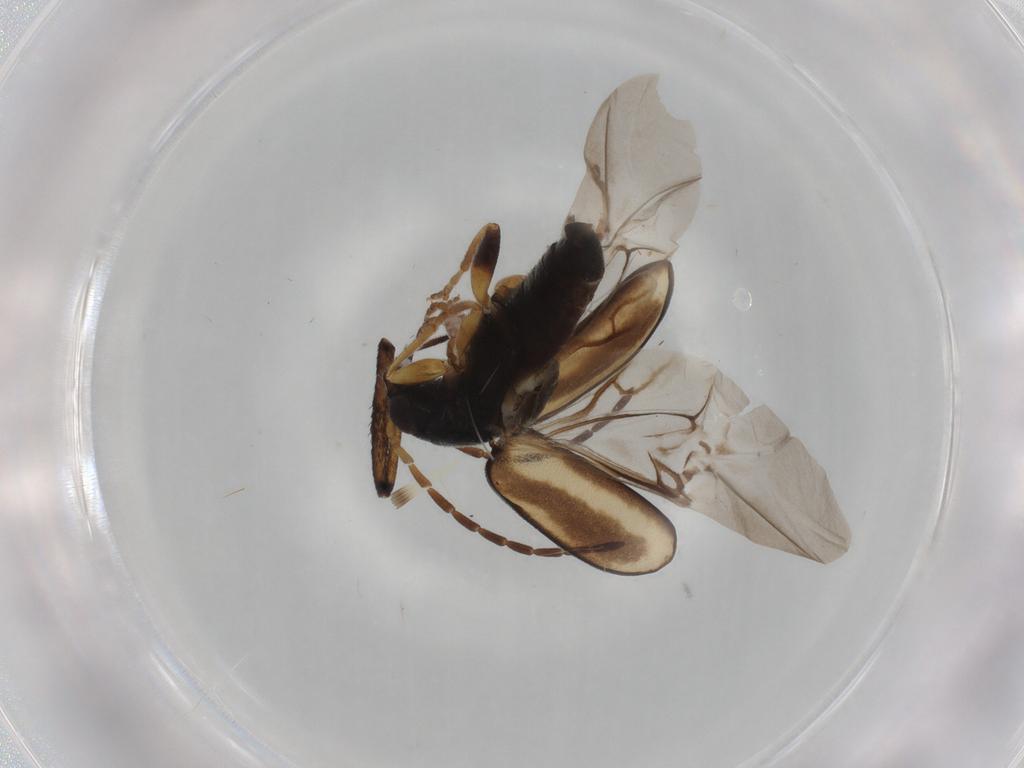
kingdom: Animalia
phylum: Arthropoda
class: Insecta
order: Coleoptera
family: Chrysomelidae
